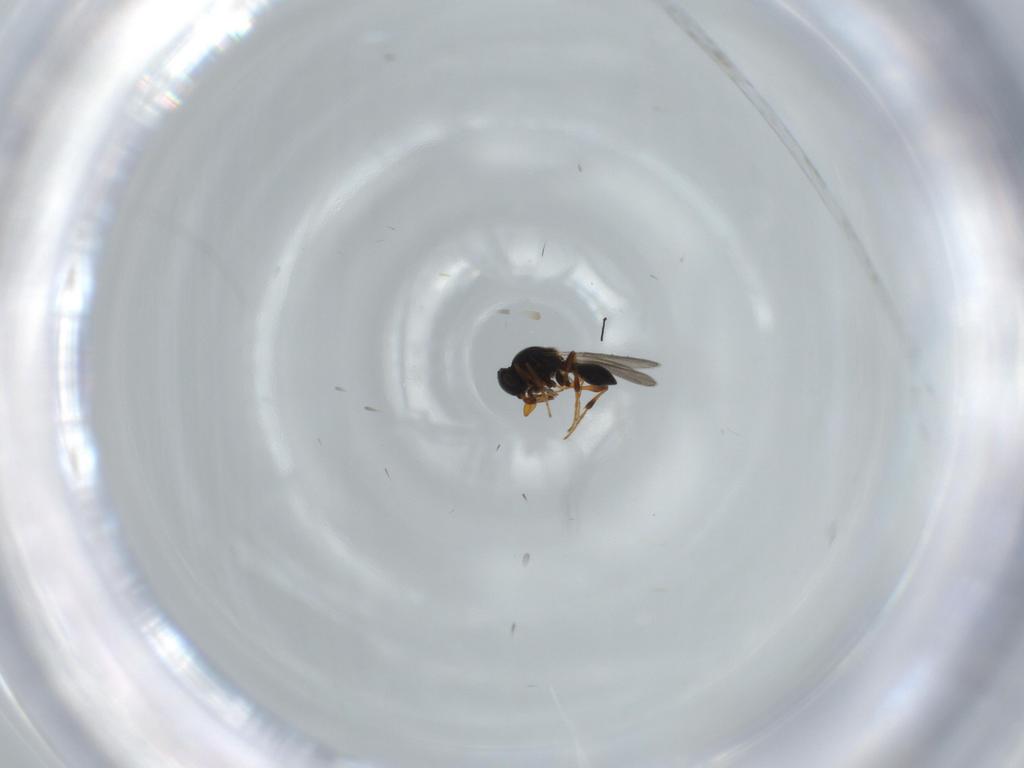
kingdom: Animalia
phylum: Arthropoda
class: Insecta
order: Hymenoptera
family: Platygastridae
